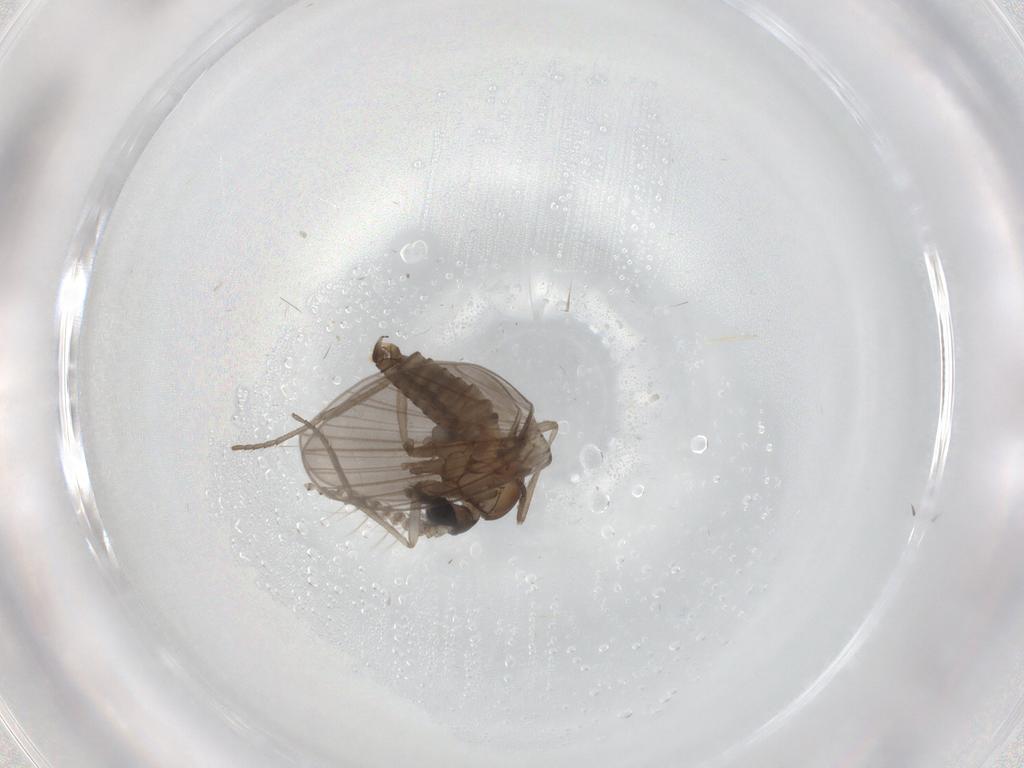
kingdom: Animalia
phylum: Arthropoda
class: Insecta
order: Diptera
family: Psychodidae
